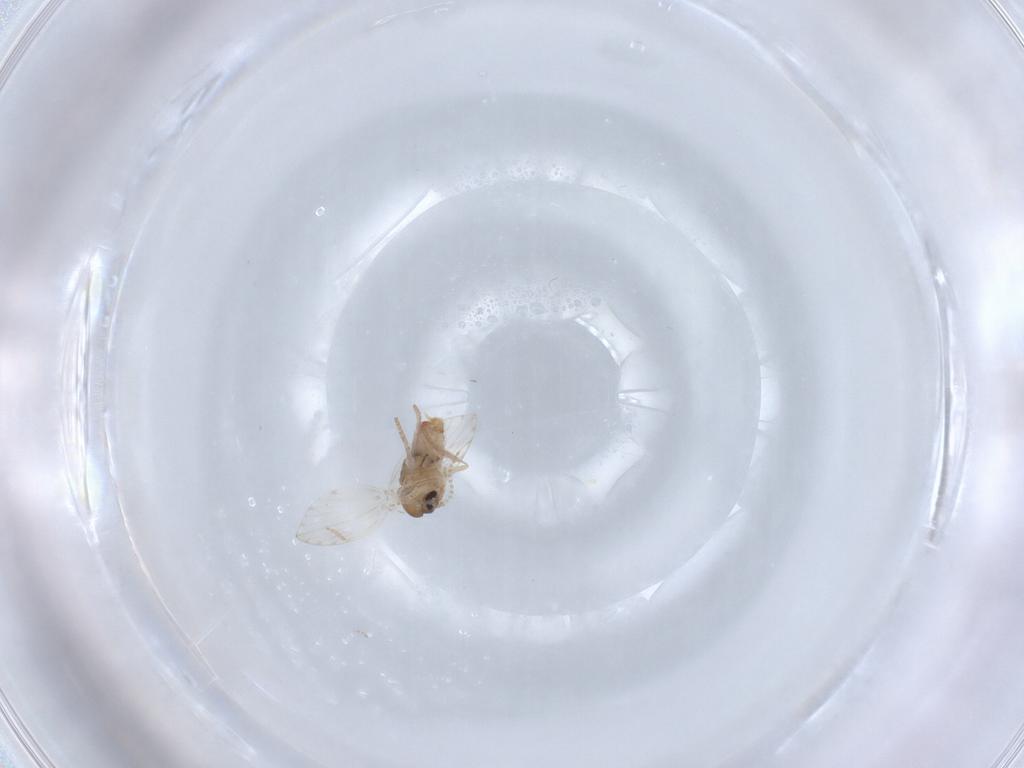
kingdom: Animalia
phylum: Arthropoda
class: Insecta
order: Diptera
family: Psychodidae
